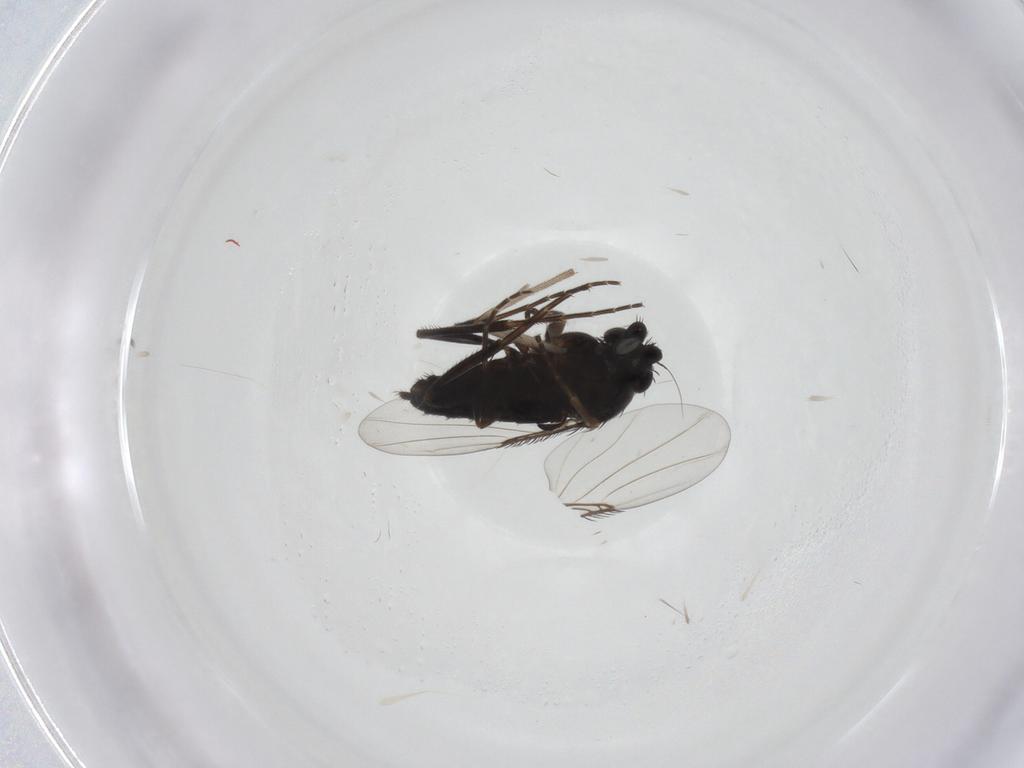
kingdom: Animalia
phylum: Arthropoda
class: Insecta
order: Diptera
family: Phoridae
